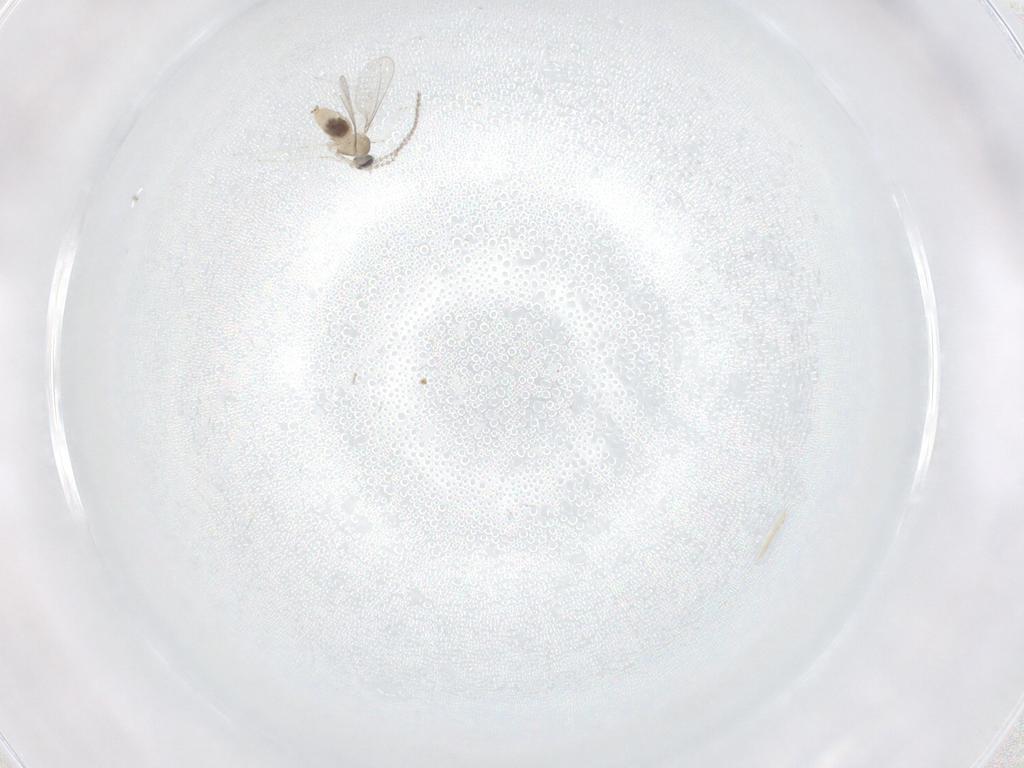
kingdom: Animalia
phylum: Arthropoda
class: Insecta
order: Diptera
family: Cecidomyiidae
